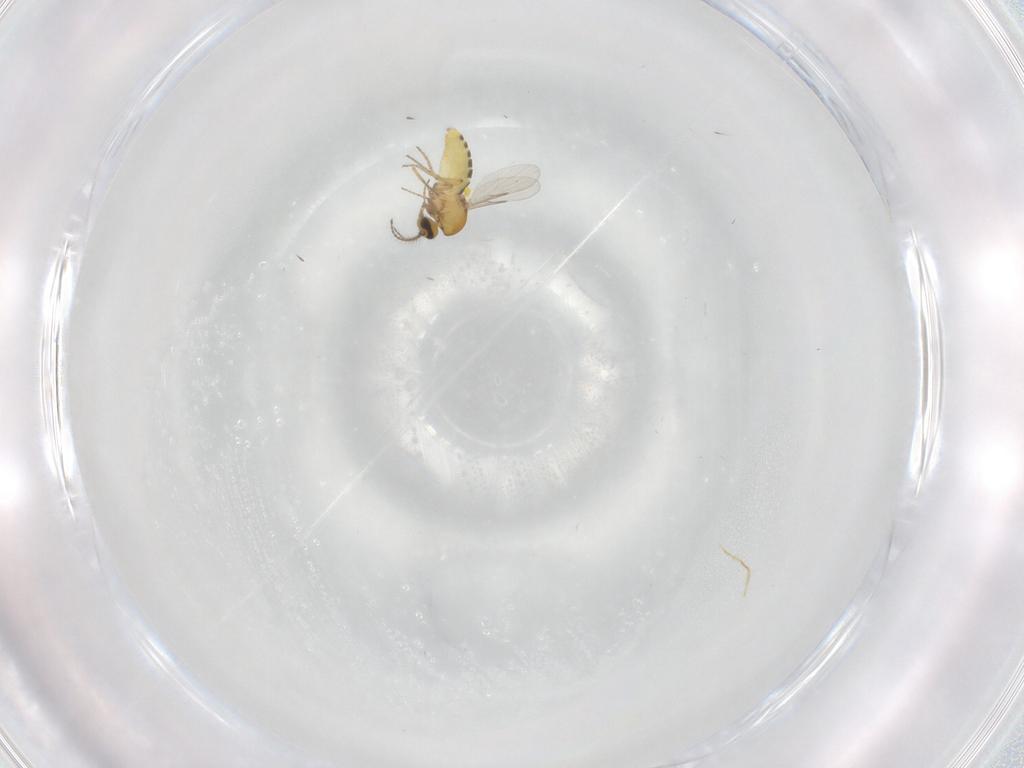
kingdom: Animalia
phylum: Arthropoda
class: Insecta
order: Diptera
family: Ceratopogonidae
